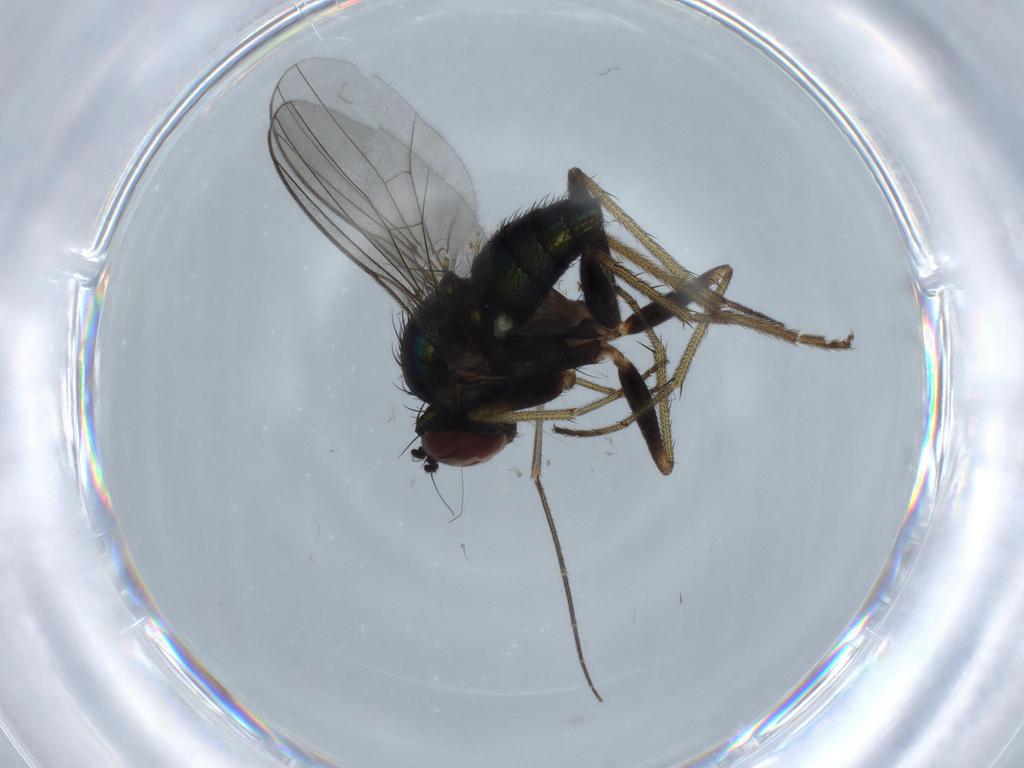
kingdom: Animalia
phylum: Arthropoda
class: Insecta
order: Diptera
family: Phoridae
